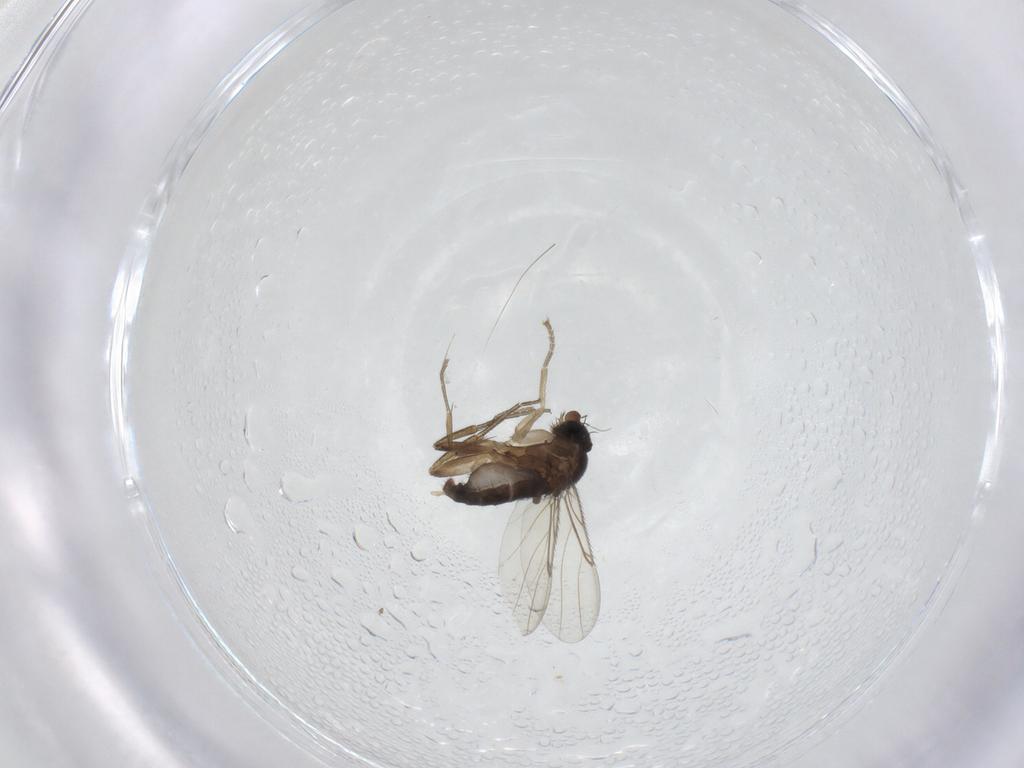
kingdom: Animalia
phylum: Arthropoda
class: Insecta
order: Diptera
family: Phoridae
